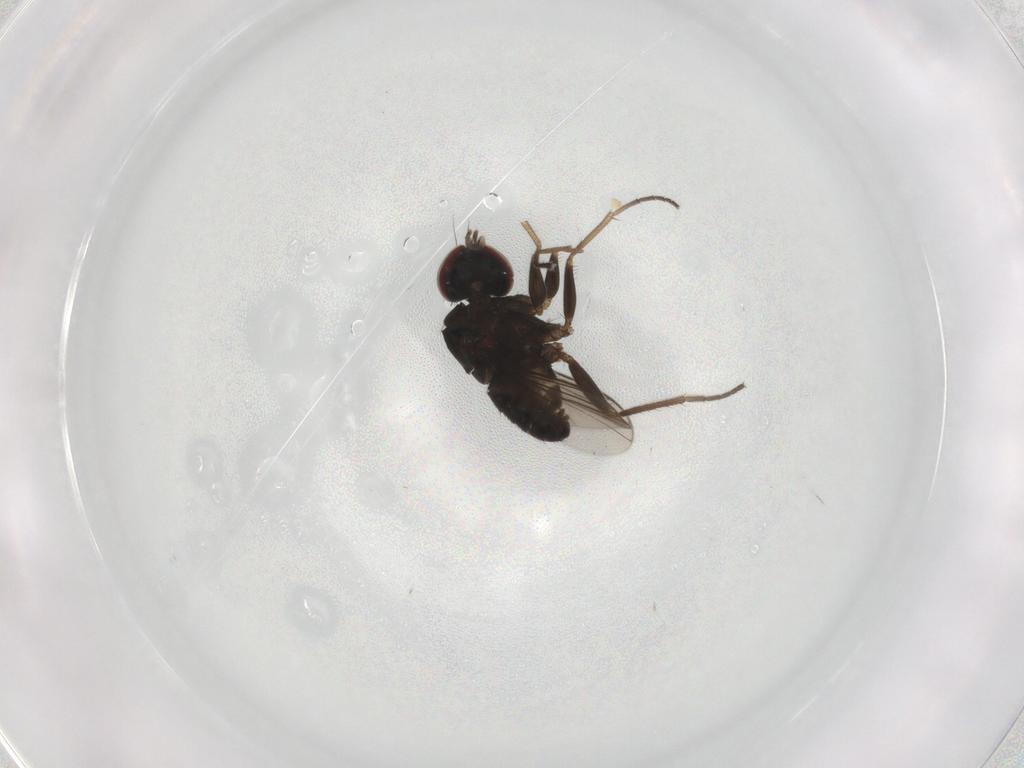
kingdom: Animalia
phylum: Arthropoda
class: Insecta
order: Diptera
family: Dolichopodidae
